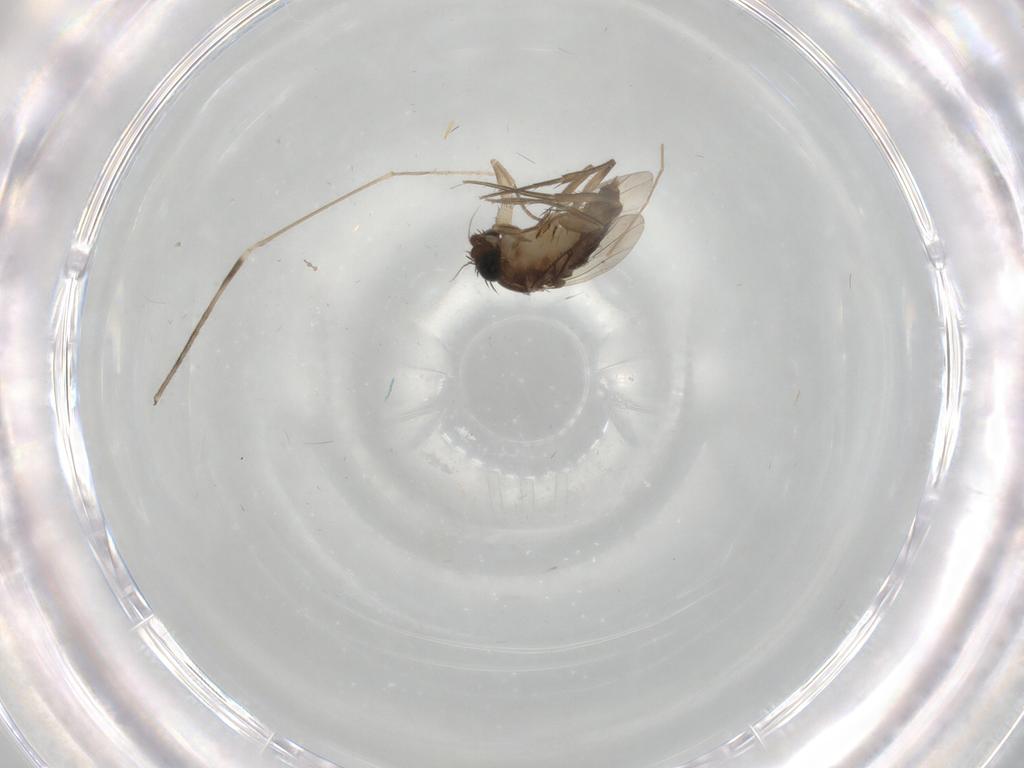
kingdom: Animalia
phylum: Arthropoda
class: Insecta
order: Diptera
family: Phoridae
